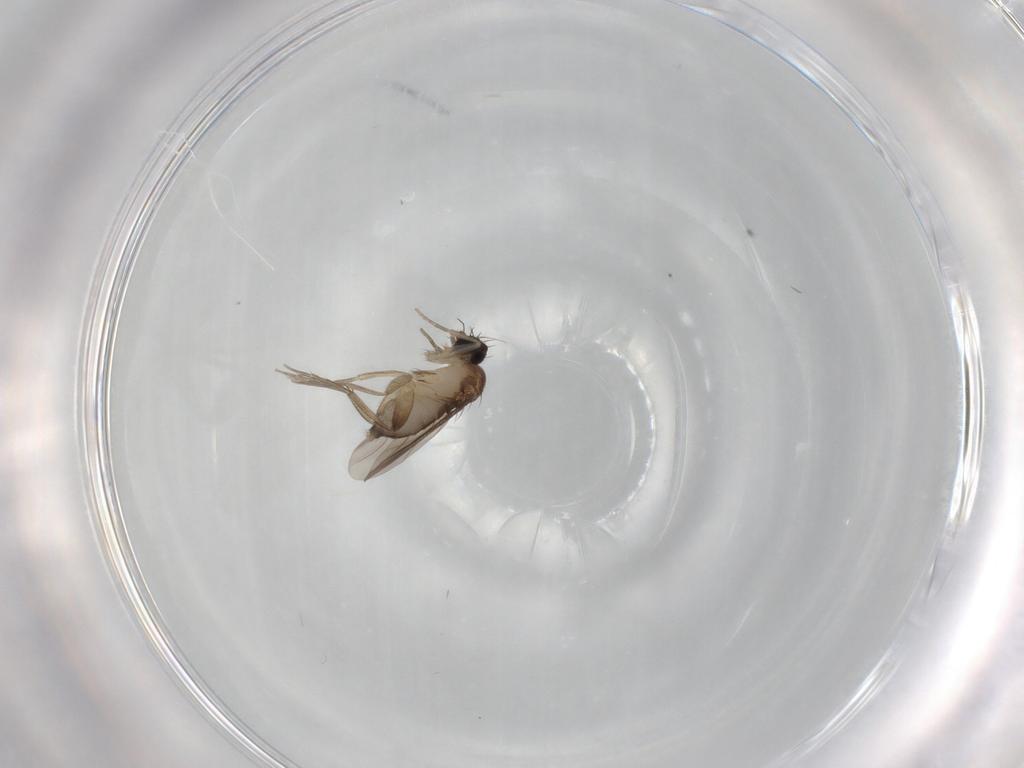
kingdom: Animalia
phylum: Arthropoda
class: Insecta
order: Diptera
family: Phoridae
